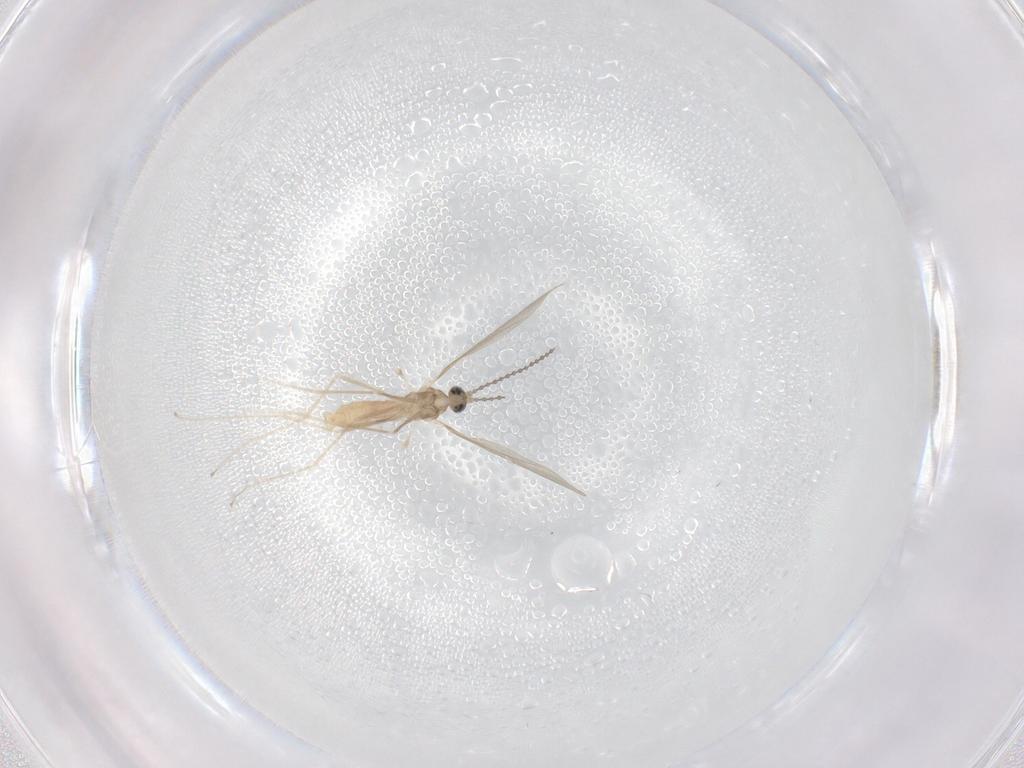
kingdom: Animalia
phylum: Arthropoda
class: Insecta
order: Diptera
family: Cecidomyiidae
